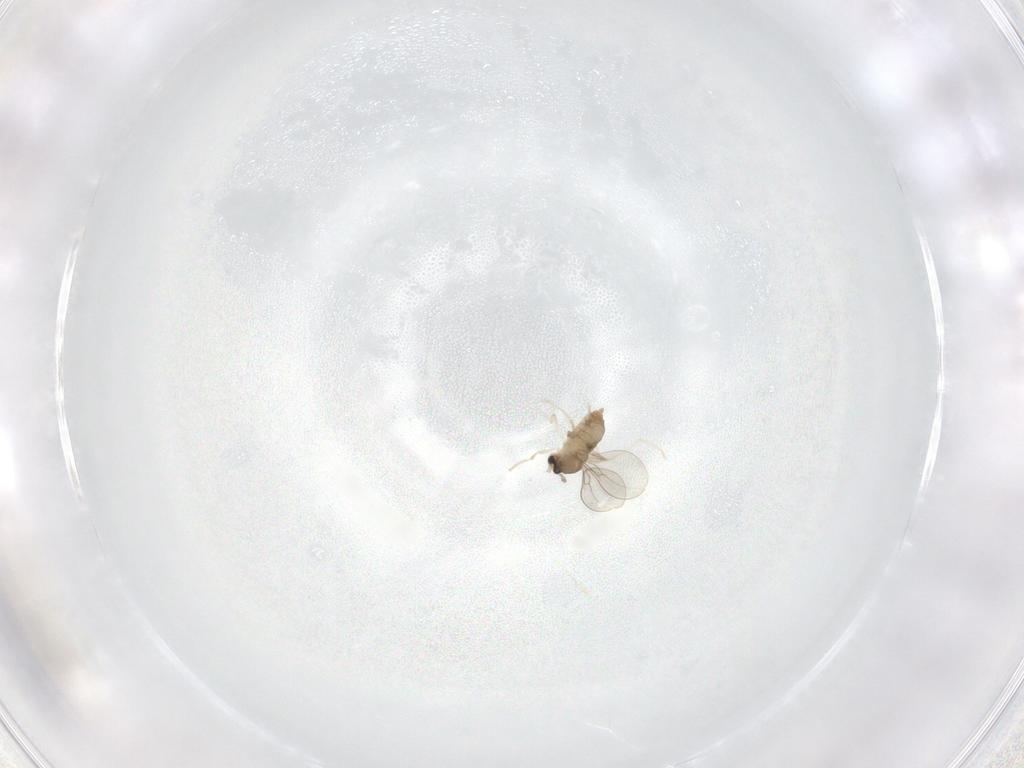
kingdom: Animalia
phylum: Arthropoda
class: Insecta
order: Diptera
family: Cecidomyiidae
